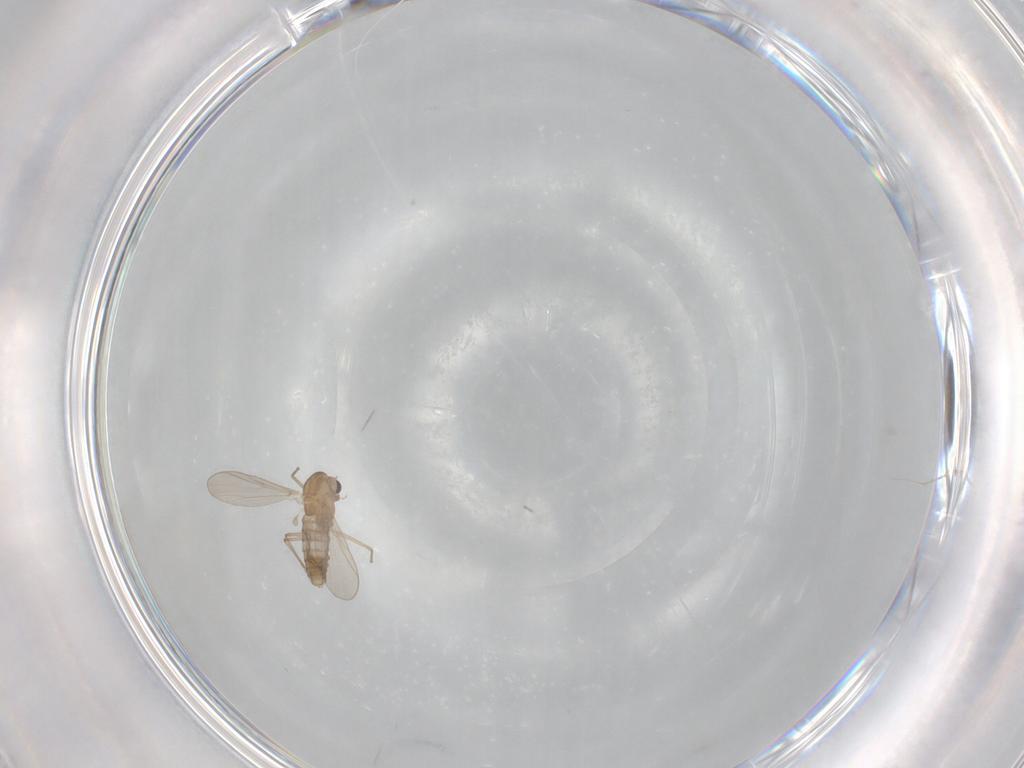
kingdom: Animalia
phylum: Arthropoda
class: Insecta
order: Diptera
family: Chironomidae
